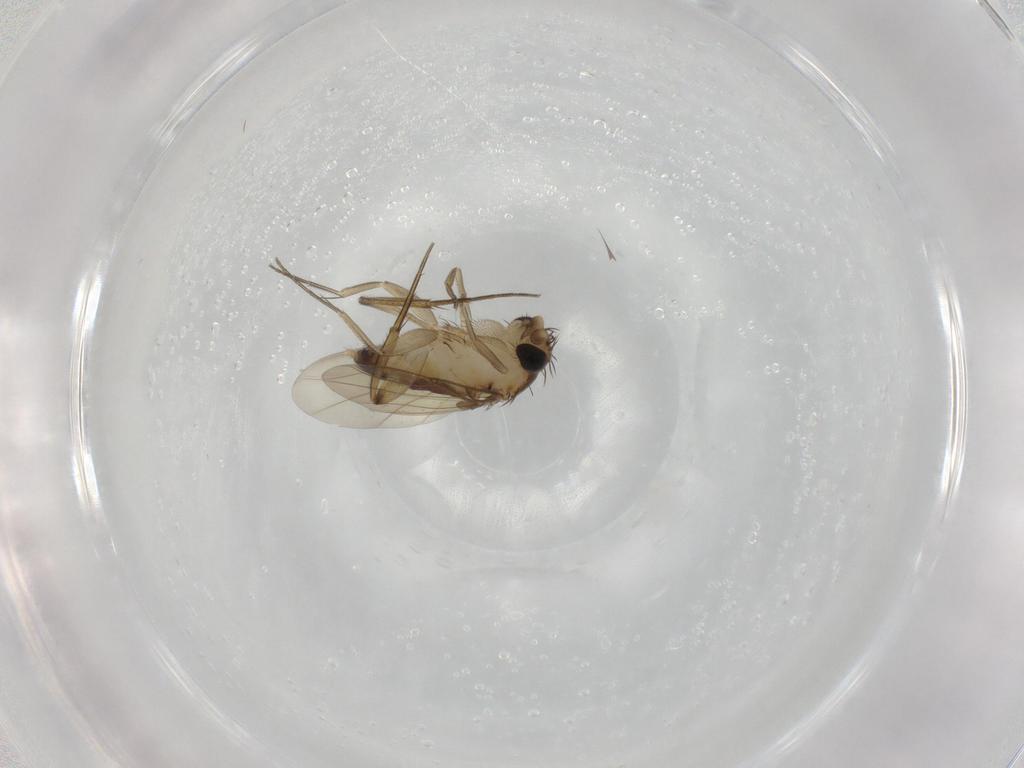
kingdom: Animalia
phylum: Arthropoda
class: Insecta
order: Diptera
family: Phoridae
